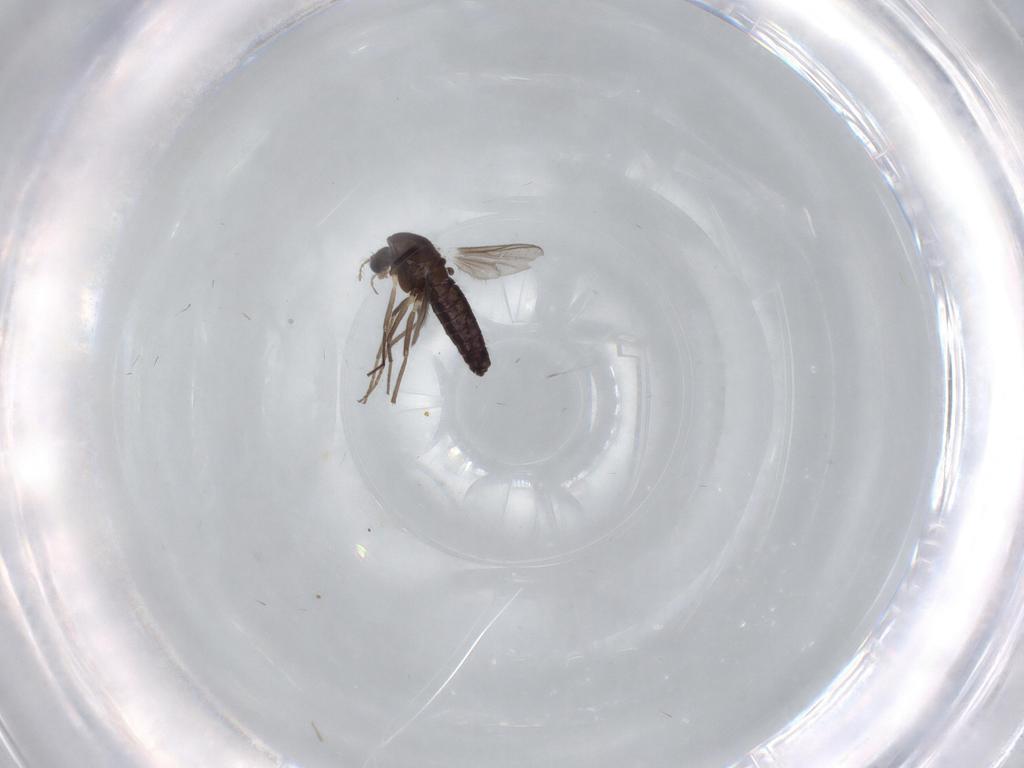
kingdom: Animalia
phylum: Arthropoda
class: Insecta
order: Diptera
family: Chironomidae
